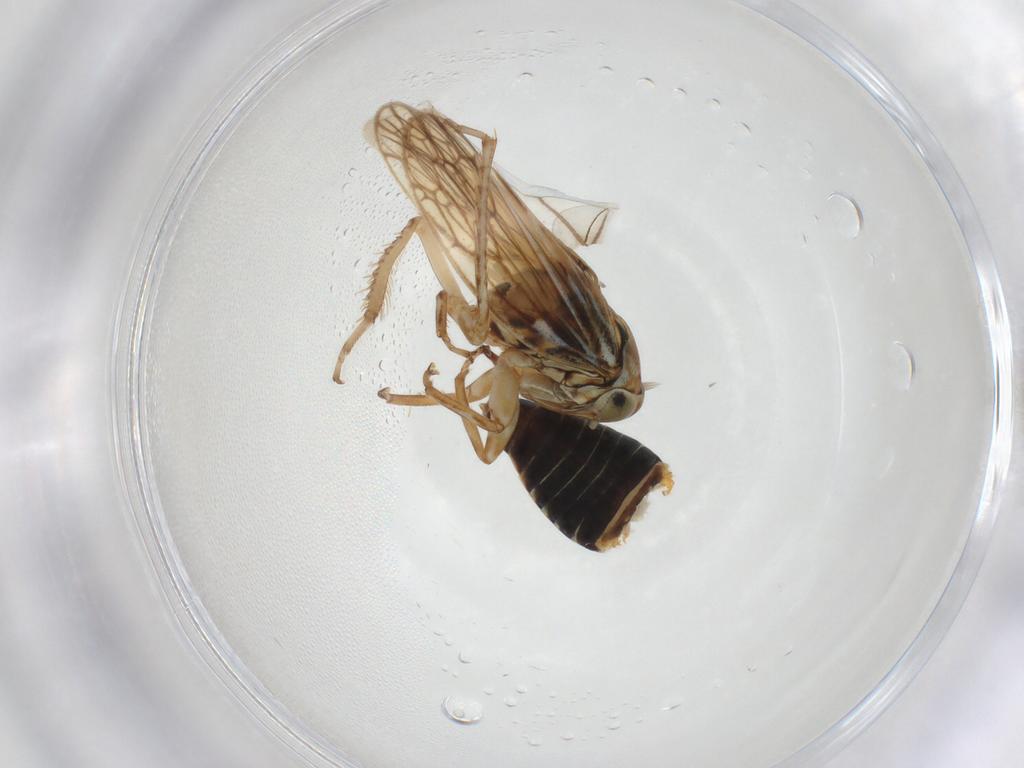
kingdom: Animalia
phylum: Arthropoda
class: Insecta
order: Hemiptera
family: Cicadellidae
